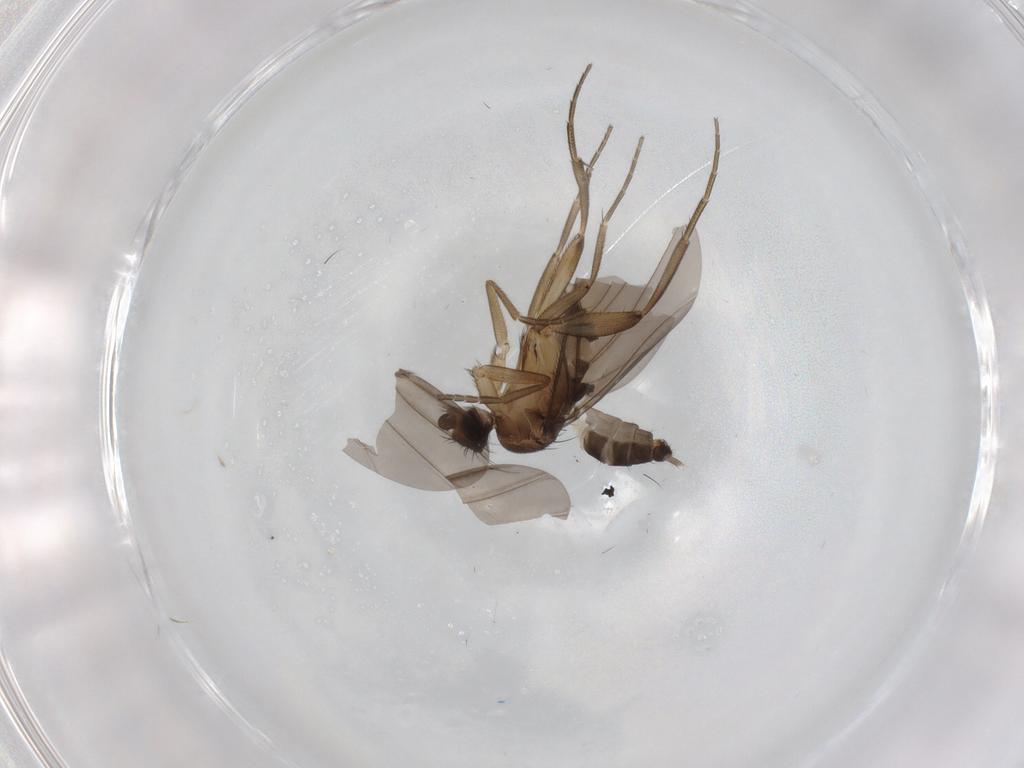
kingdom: Animalia
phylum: Arthropoda
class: Insecta
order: Diptera
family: Phoridae
